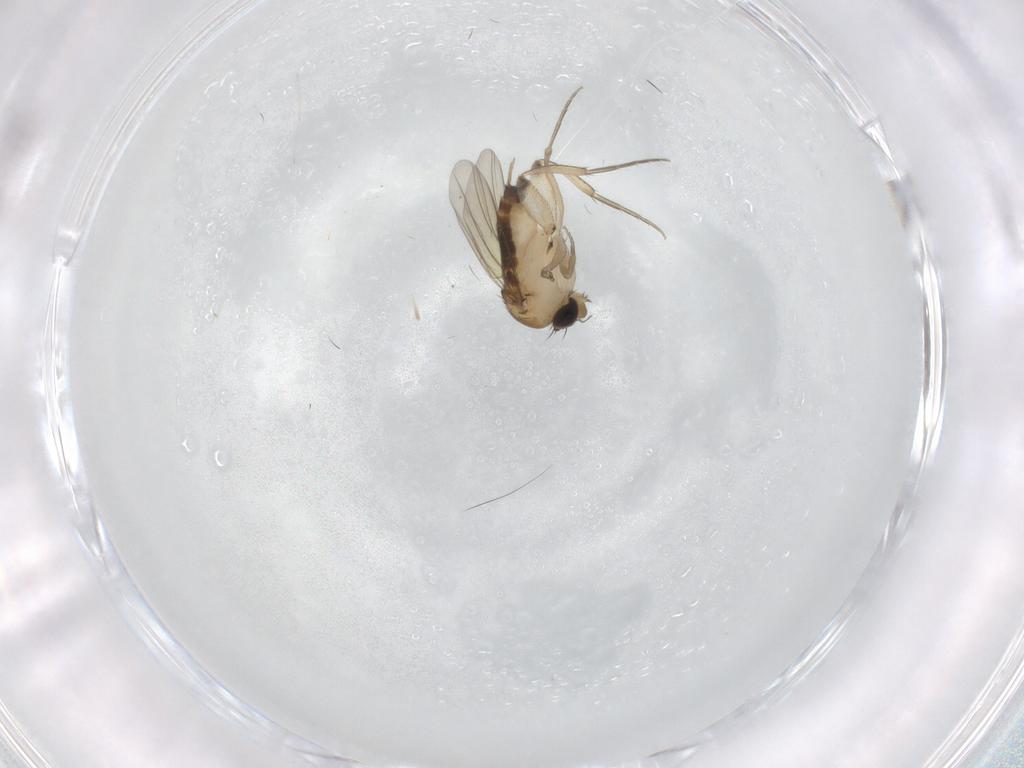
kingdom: Animalia
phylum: Arthropoda
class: Insecta
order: Diptera
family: Phoridae
